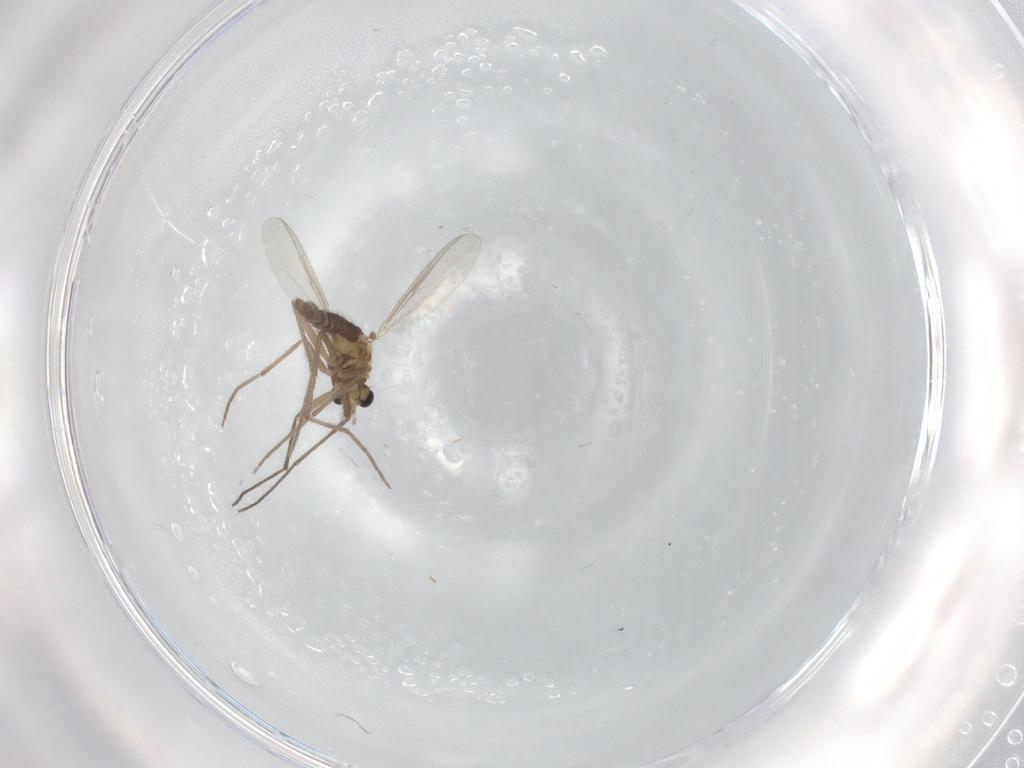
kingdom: Animalia
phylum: Arthropoda
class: Insecta
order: Diptera
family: Chironomidae
